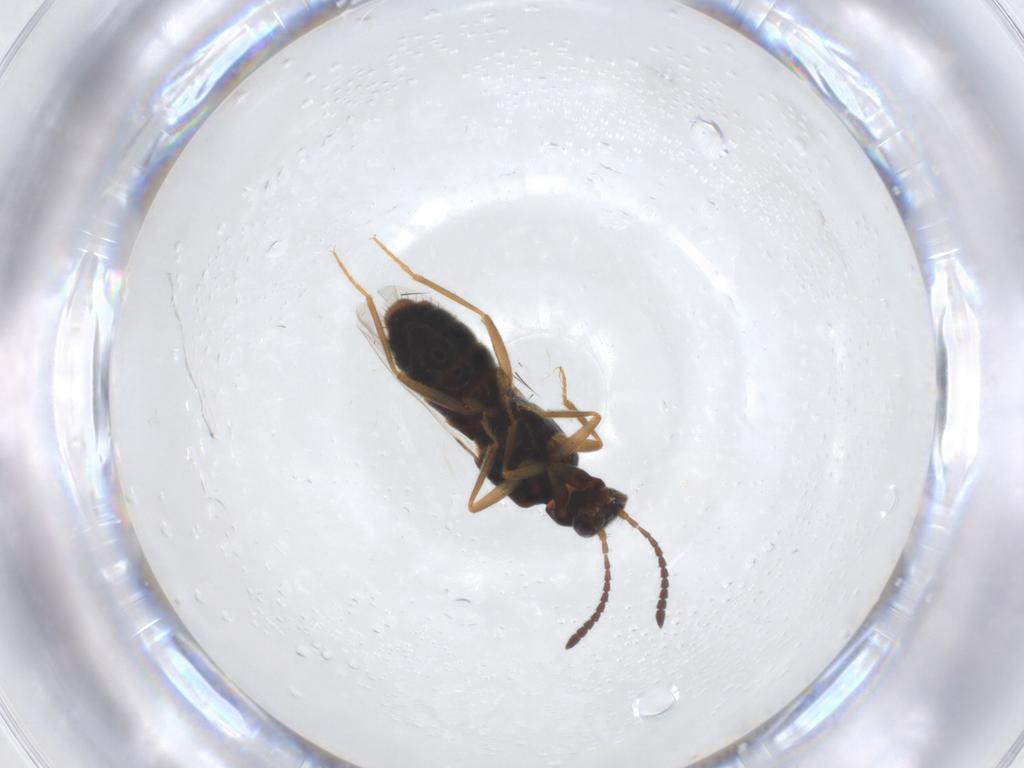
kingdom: Animalia
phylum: Arthropoda
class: Insecta
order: Coleoptera
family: Staphylinidae
